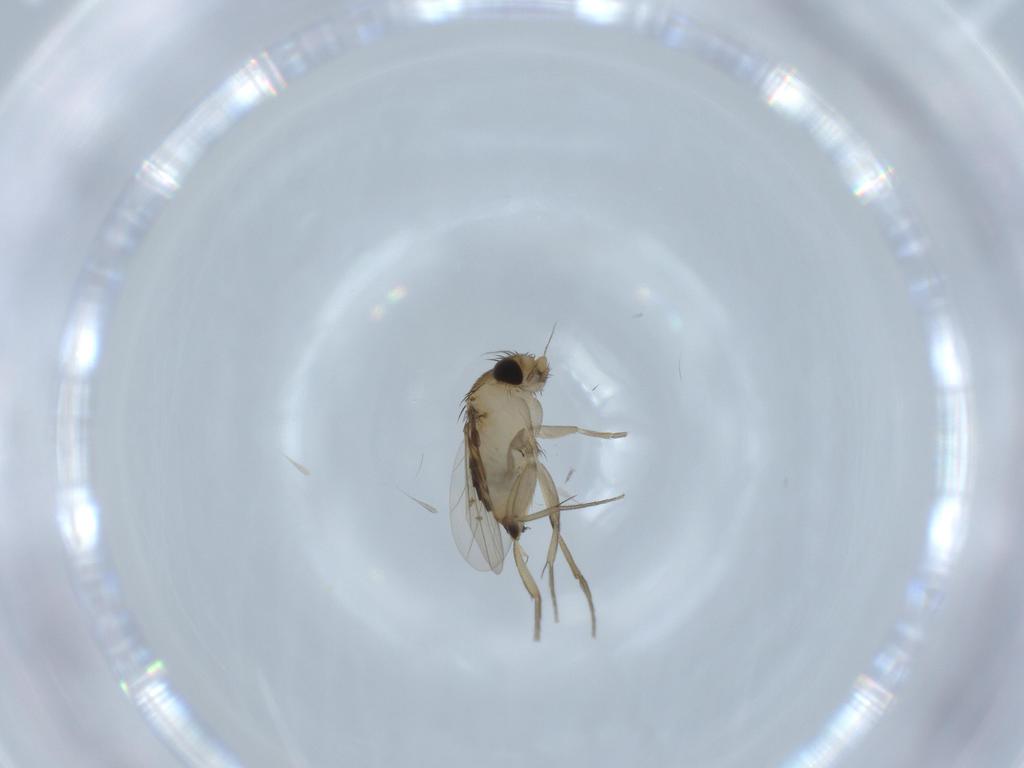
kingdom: Animalia
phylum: Arthropoda
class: Insecta
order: Diptera
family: Phoridae
